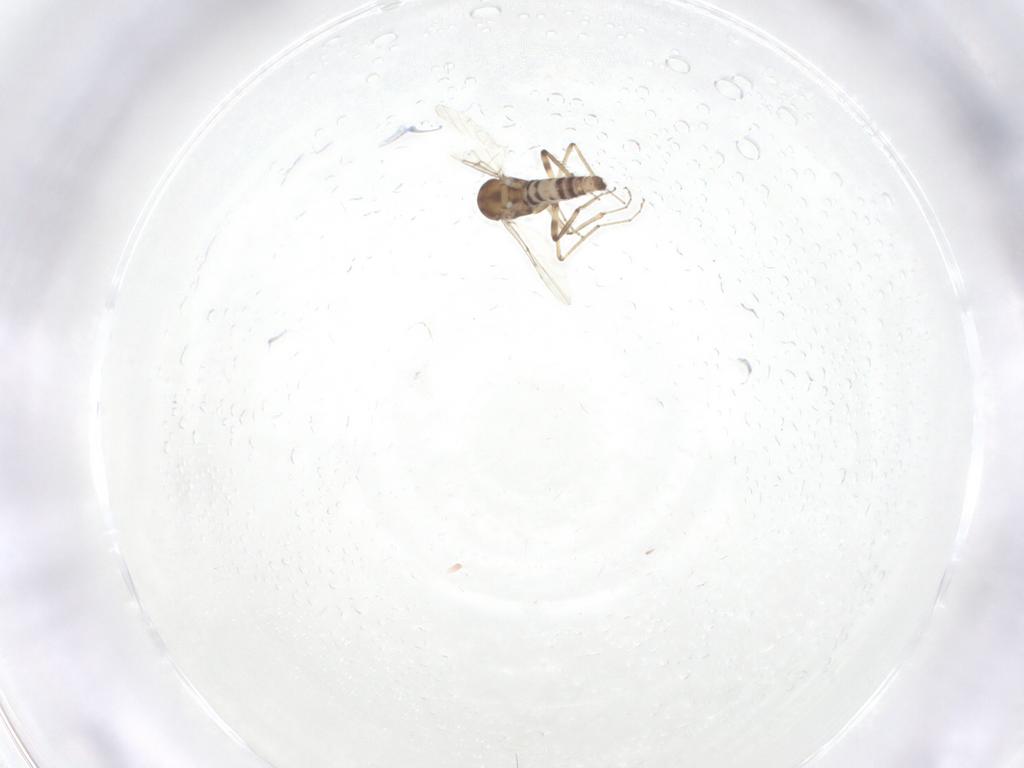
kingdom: Animalia
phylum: Arthropoda
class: Insecta
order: Diptera
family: Ceratopogonidae
